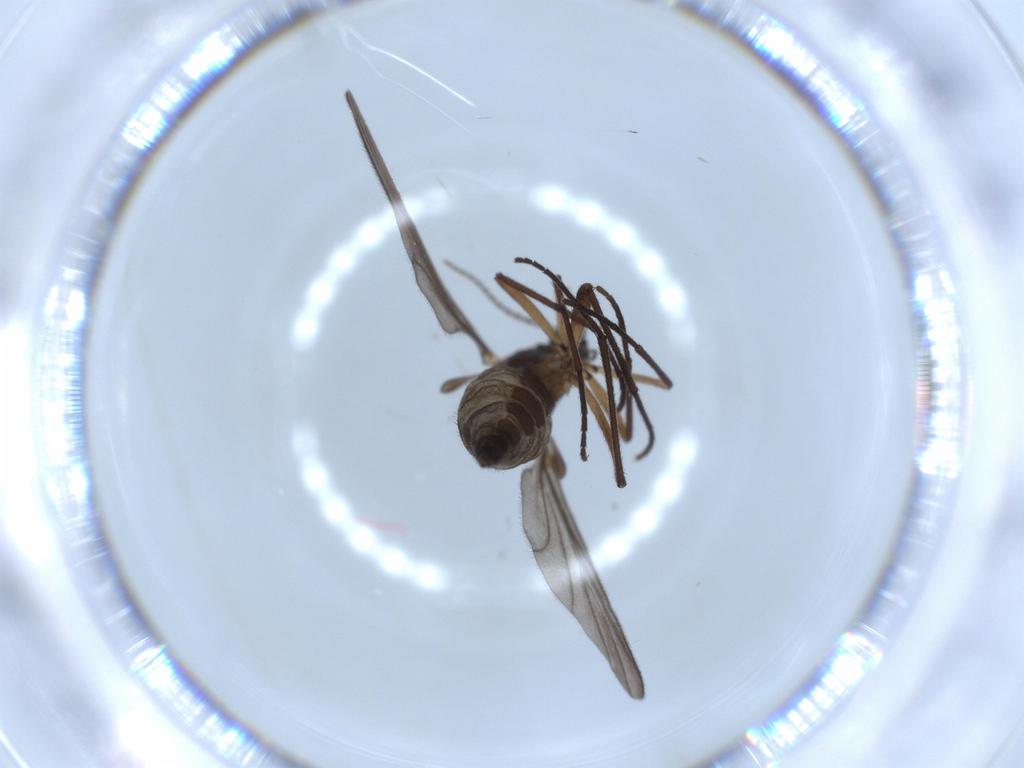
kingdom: Animalia
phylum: Arthropoda
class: Insecta
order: Diptera
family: Sciaridae
